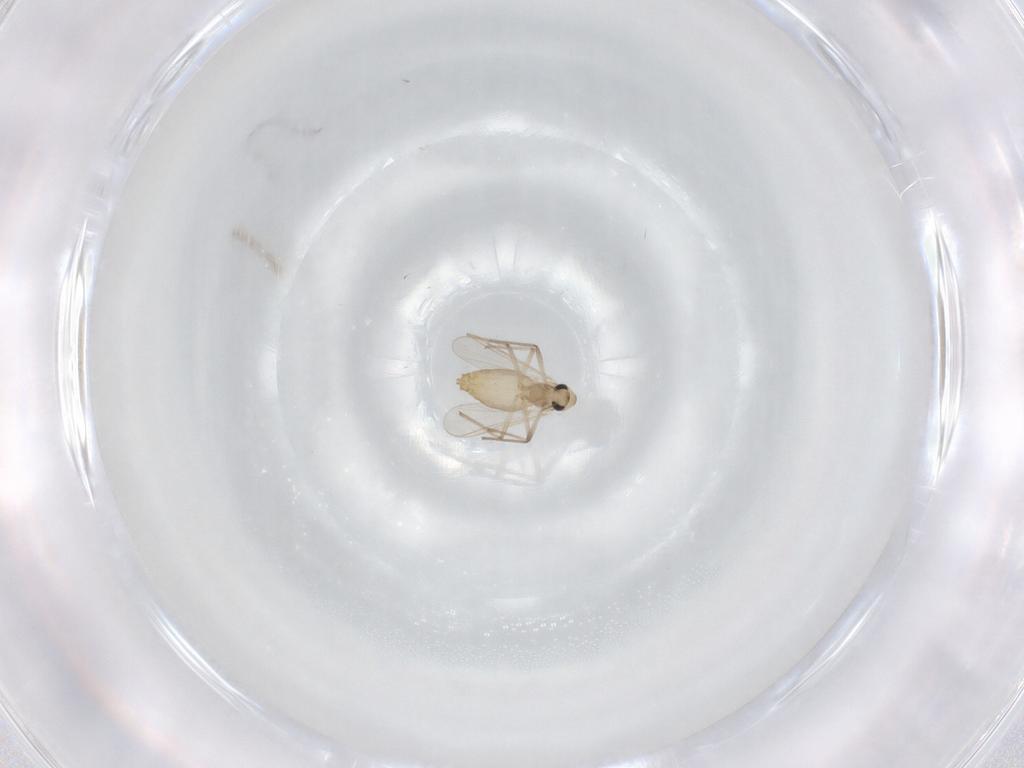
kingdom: Animalia
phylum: Arthropoda
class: Insecta
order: Diptera
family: Chironomidae
